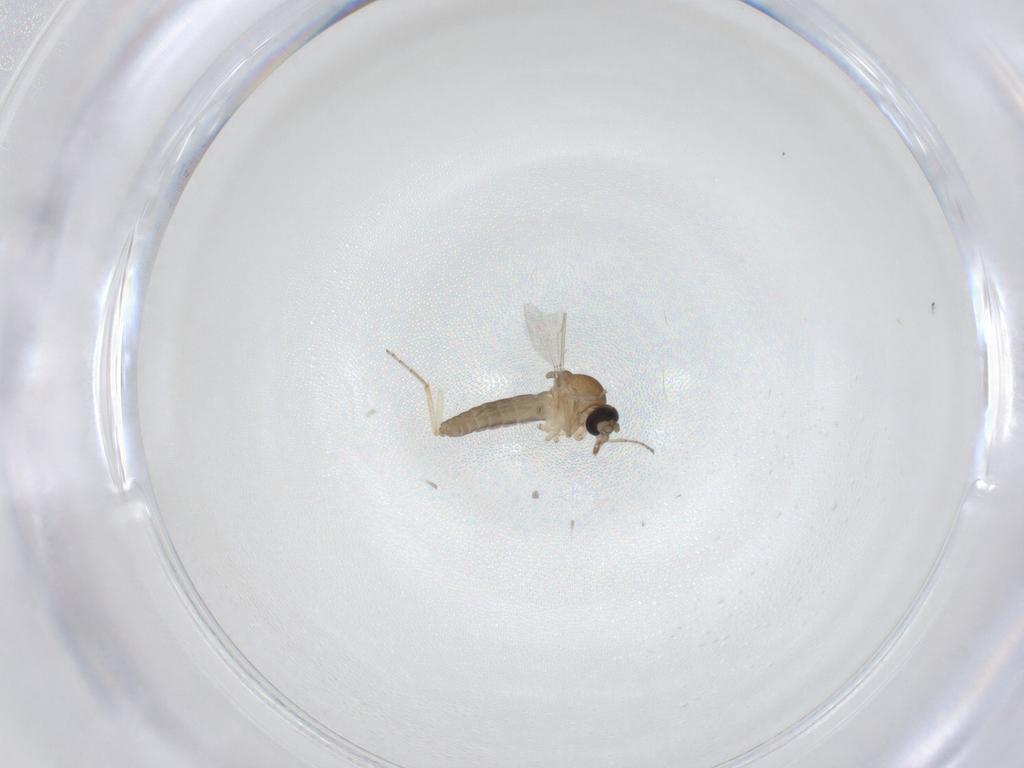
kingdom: Animalia
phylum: Arthropoda
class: Insecta
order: Diptera
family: Ceratopogonidae
